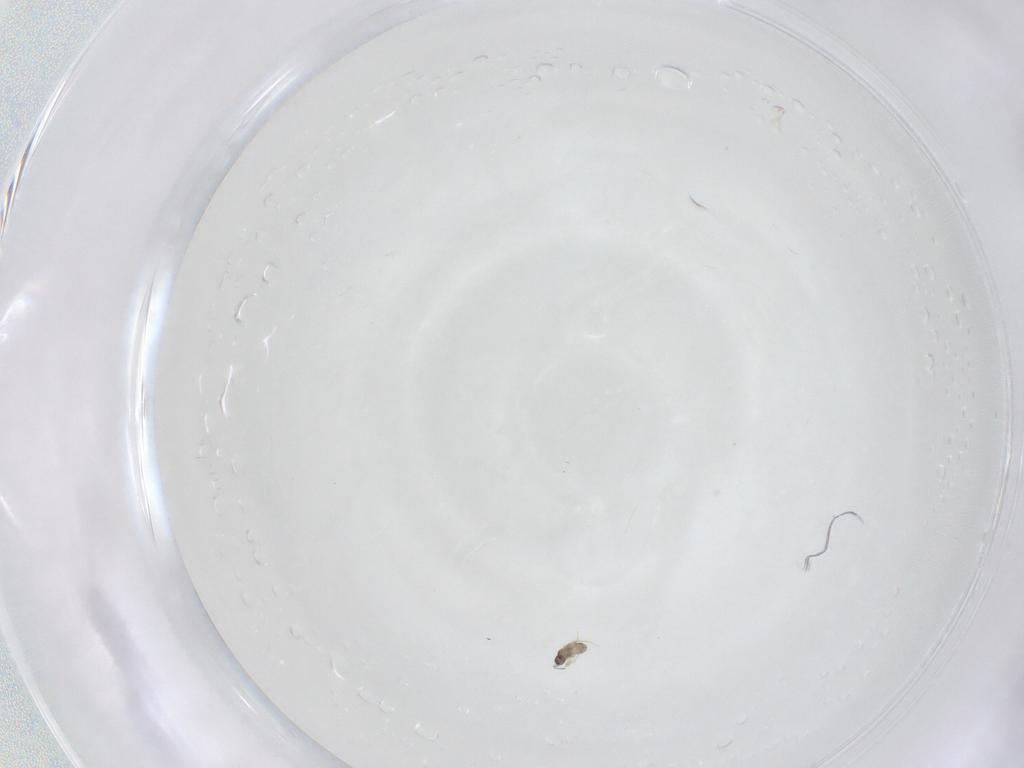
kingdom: Animalia
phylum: Arthropoda
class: Insecta
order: Hymenoptera
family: Mymaridae
